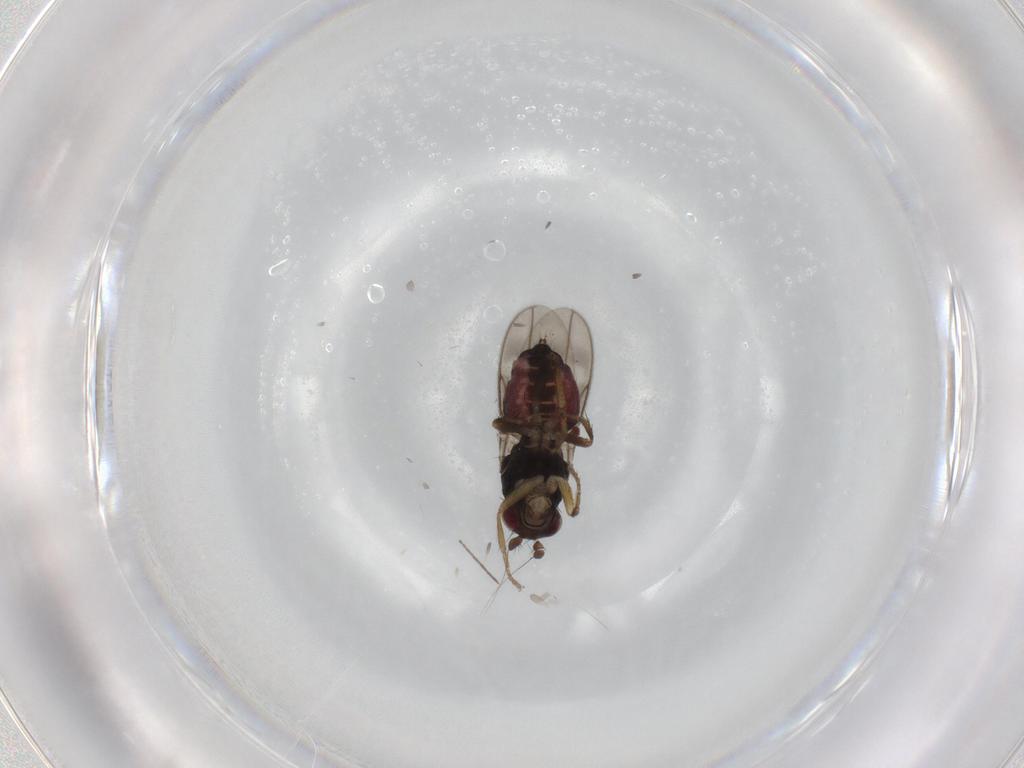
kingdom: Animalia
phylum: Arthropoda
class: Insecta
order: Diptera
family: Sphaeroceridae
